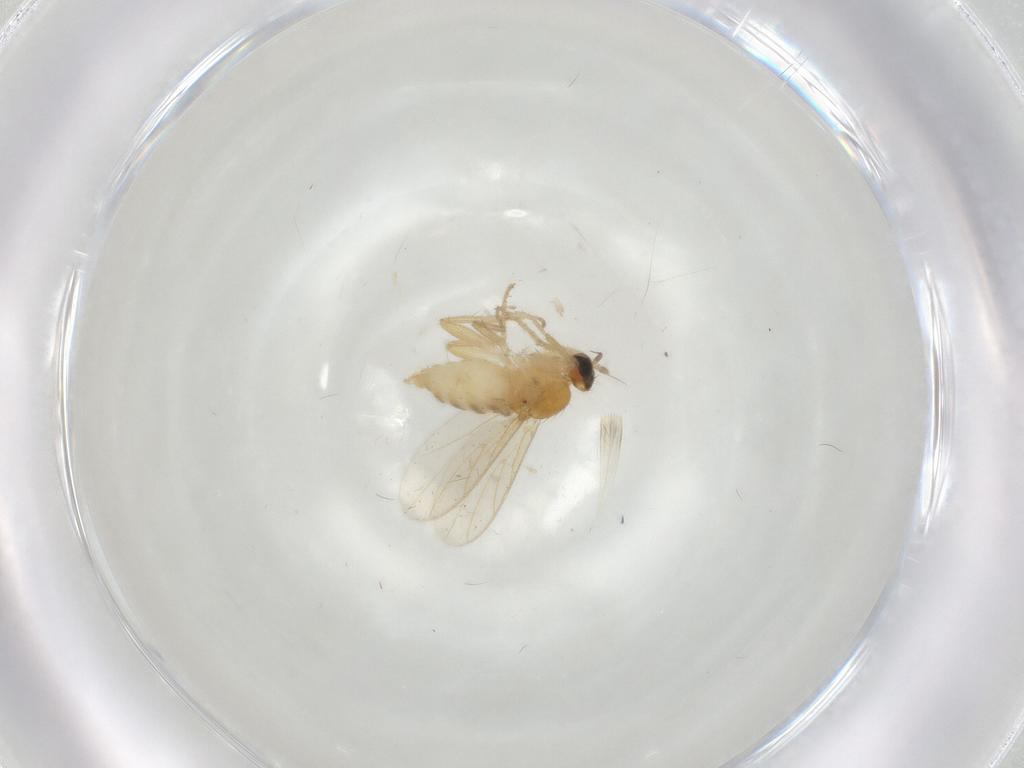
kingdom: Animalia
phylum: Arthropoda
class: Insecta
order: Diptera
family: Hybotidae
